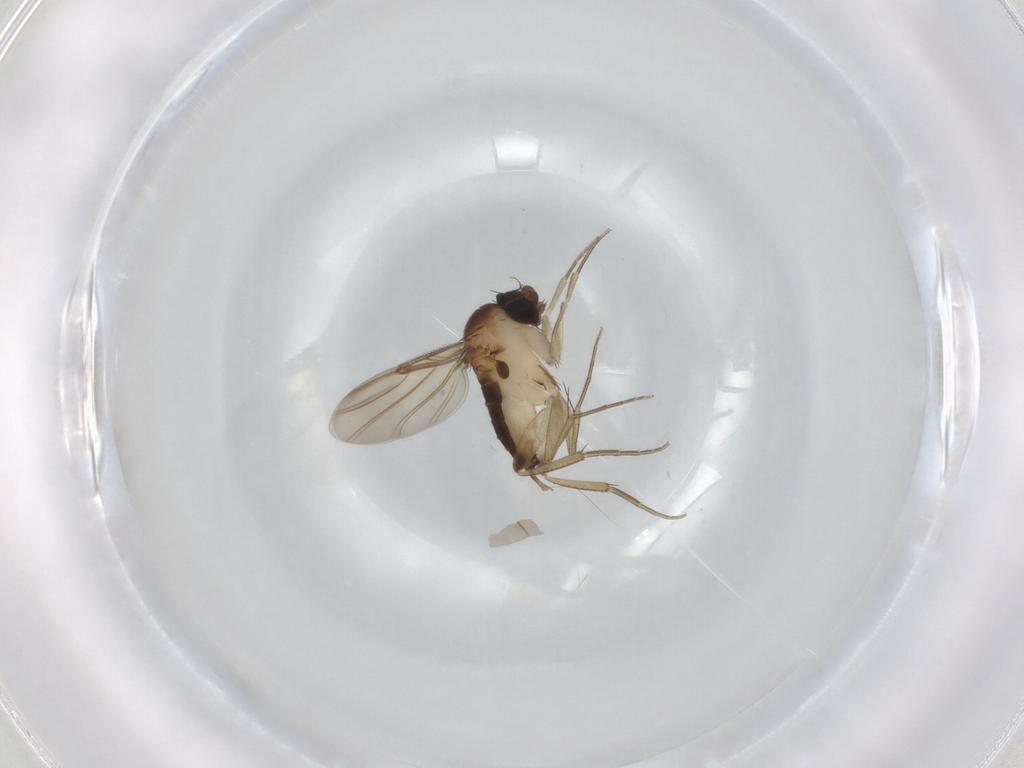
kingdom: Animalia
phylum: Arthropoda
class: Insecta
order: Diptera
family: Phoridae
